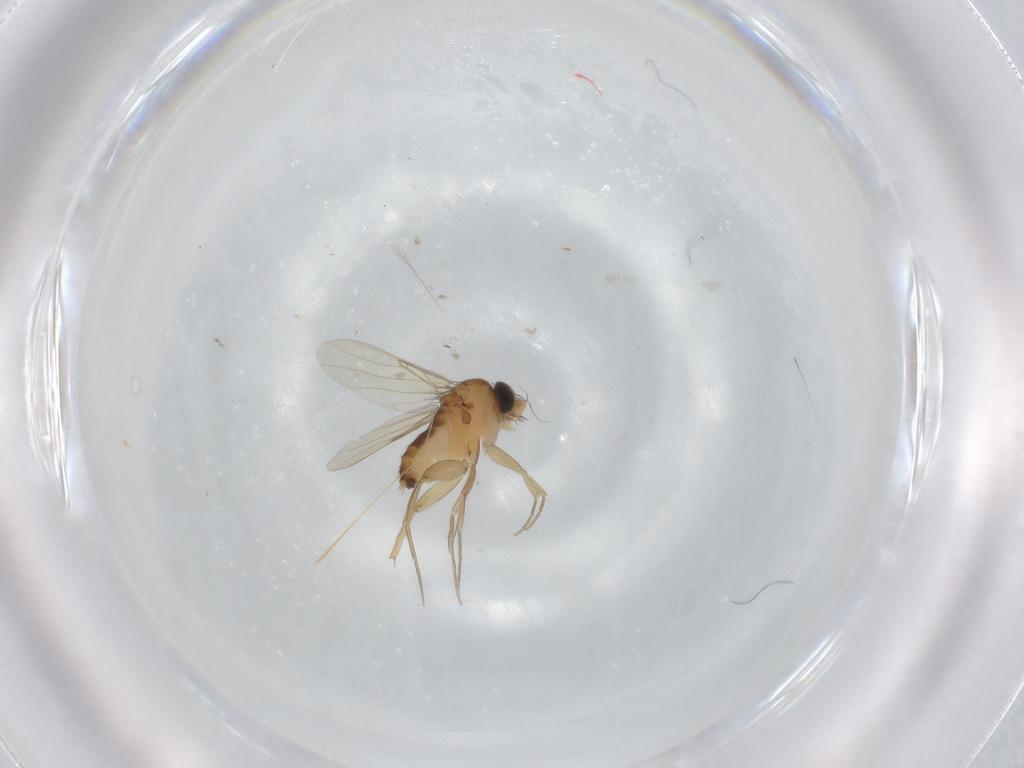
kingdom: Animalia
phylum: Arthropoda
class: Insecta
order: Diptera
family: Phoridae
